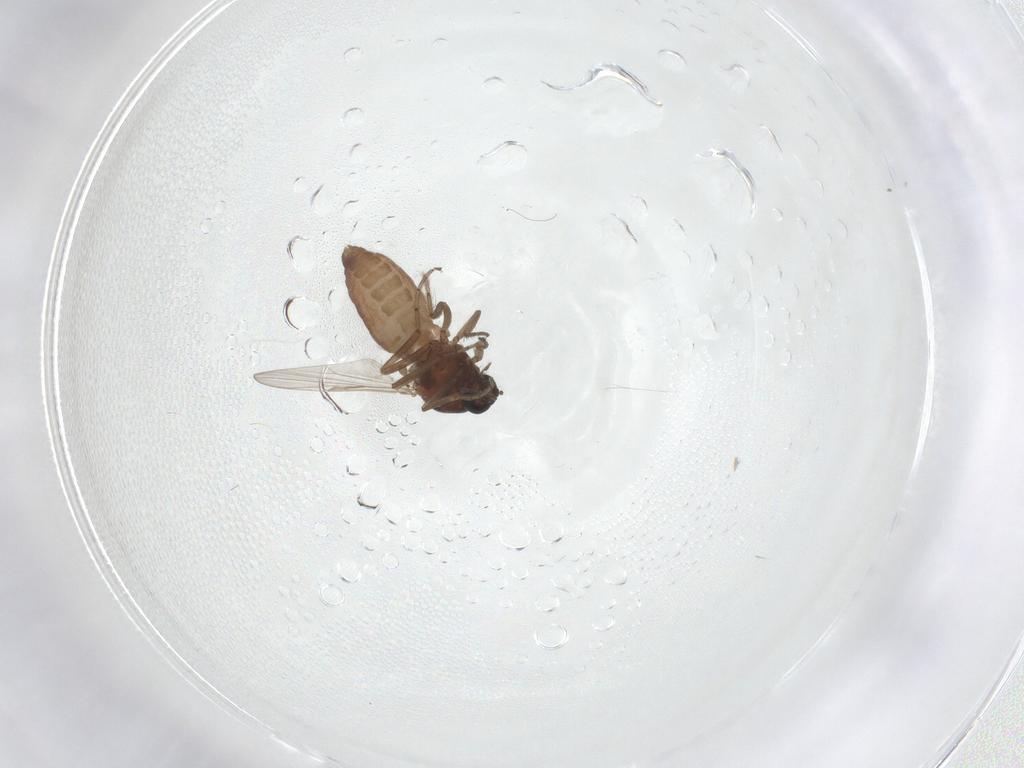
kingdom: Animalia
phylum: Arthropoda
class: Insecta
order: Diptera
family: Ceratopogonidae
